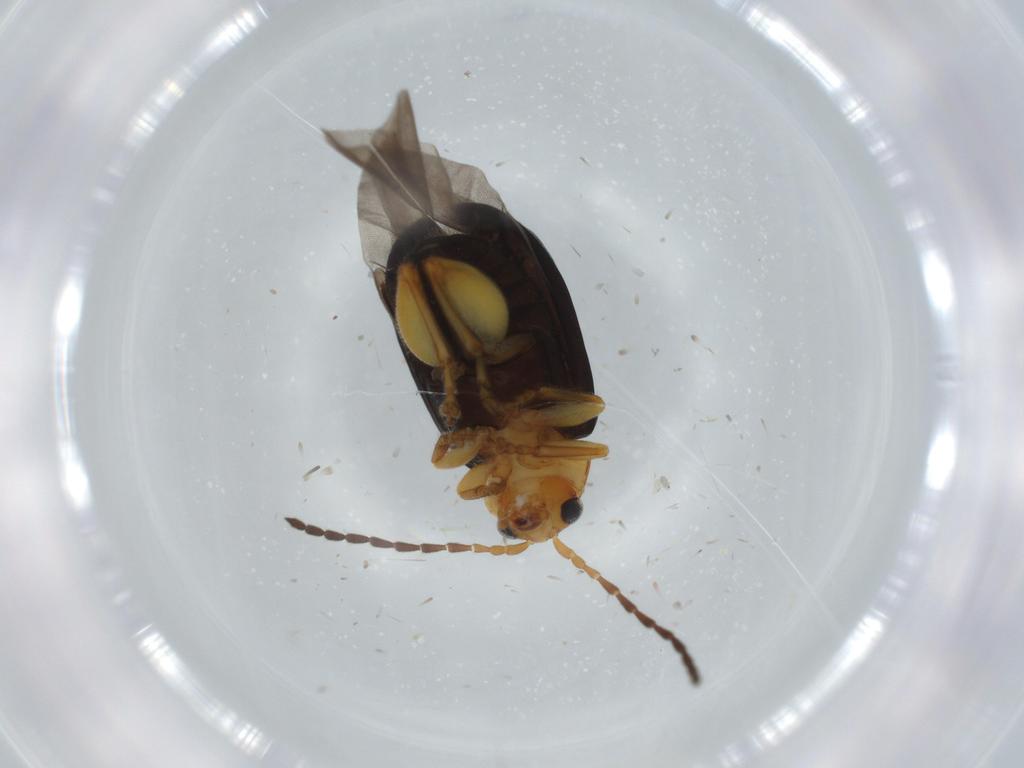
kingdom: Animalia
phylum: Arthropoda
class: Insecta
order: Coleoptera
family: Chrysomelidae
